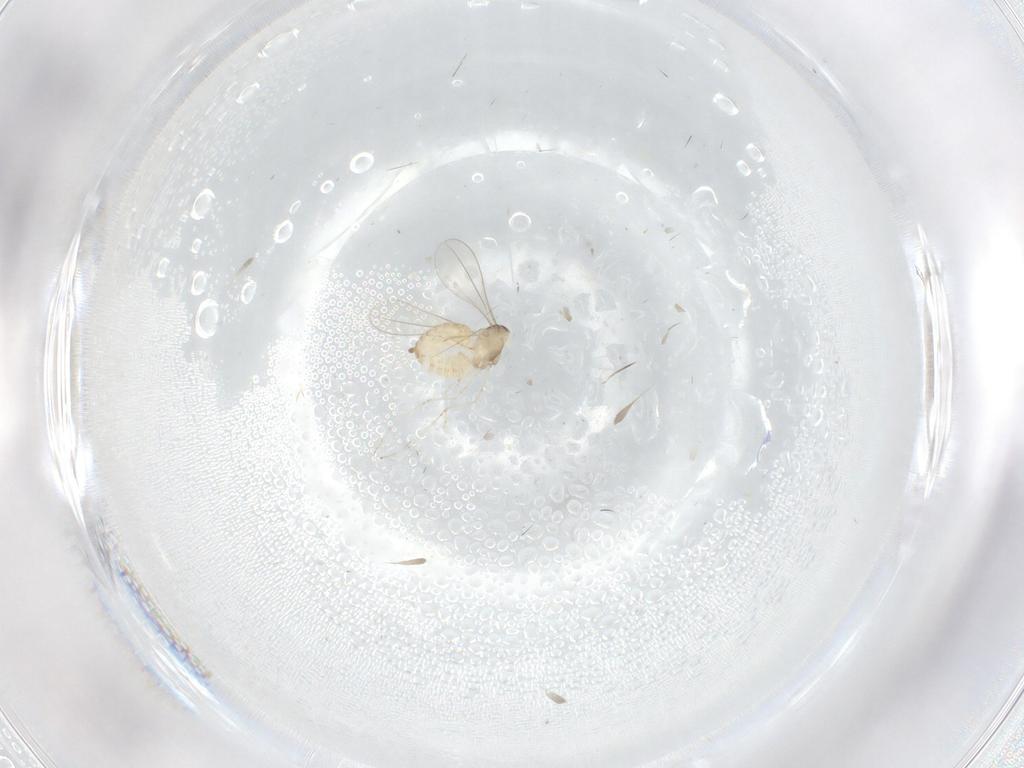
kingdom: Animalia
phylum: Arthropoda
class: Insecta
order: Diptera
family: Cecidomyiidae
